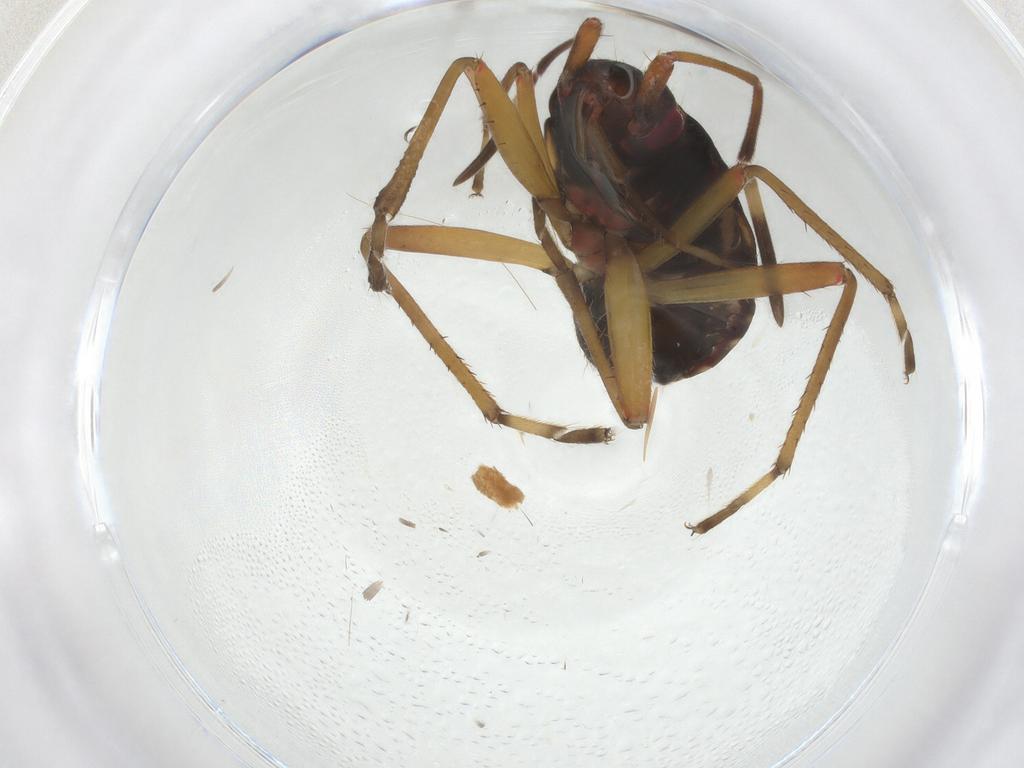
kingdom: Animalia
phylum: Arthropoda
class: Insecta
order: Hemiptera
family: Rhyparochromidae
